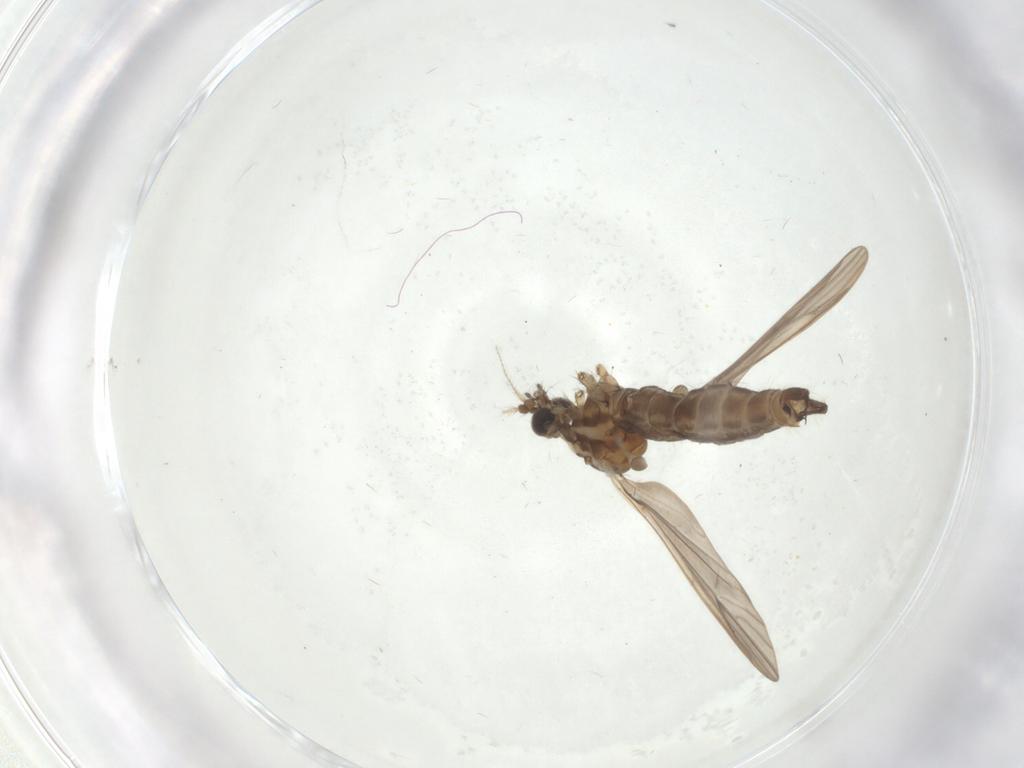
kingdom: Animalia
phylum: Arthropoda
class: Insecta
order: Diptera
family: Limoniidae
